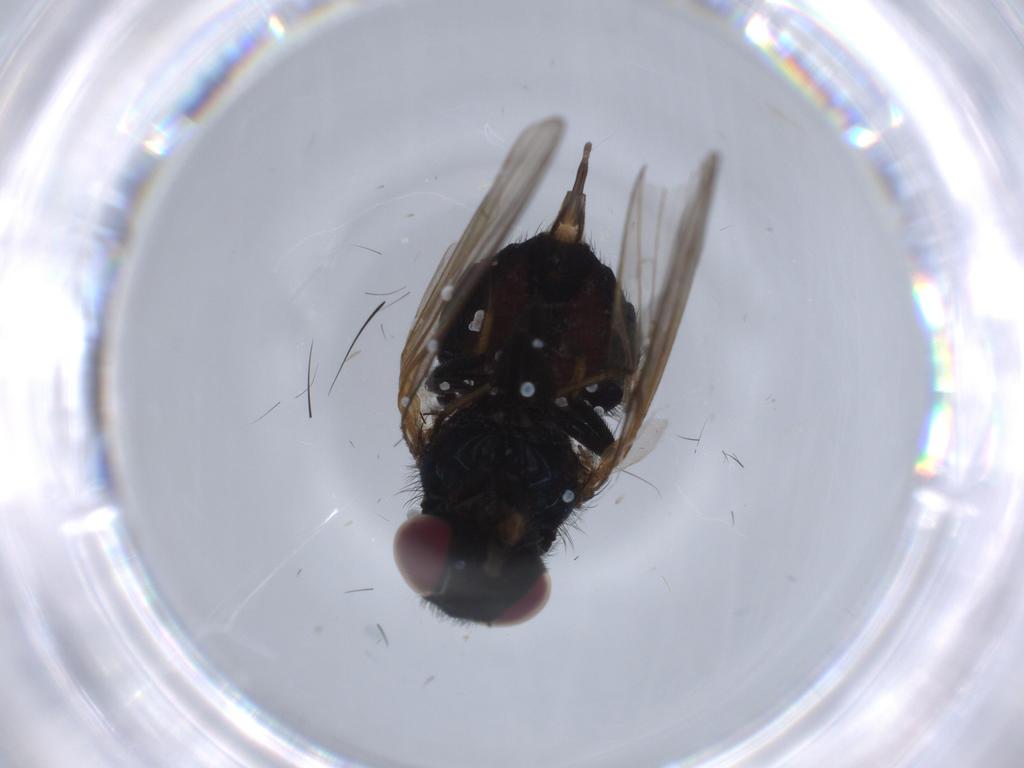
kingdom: Animalia
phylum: Arthropoda
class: Insecta
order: Diptera
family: Lonchaeidae
